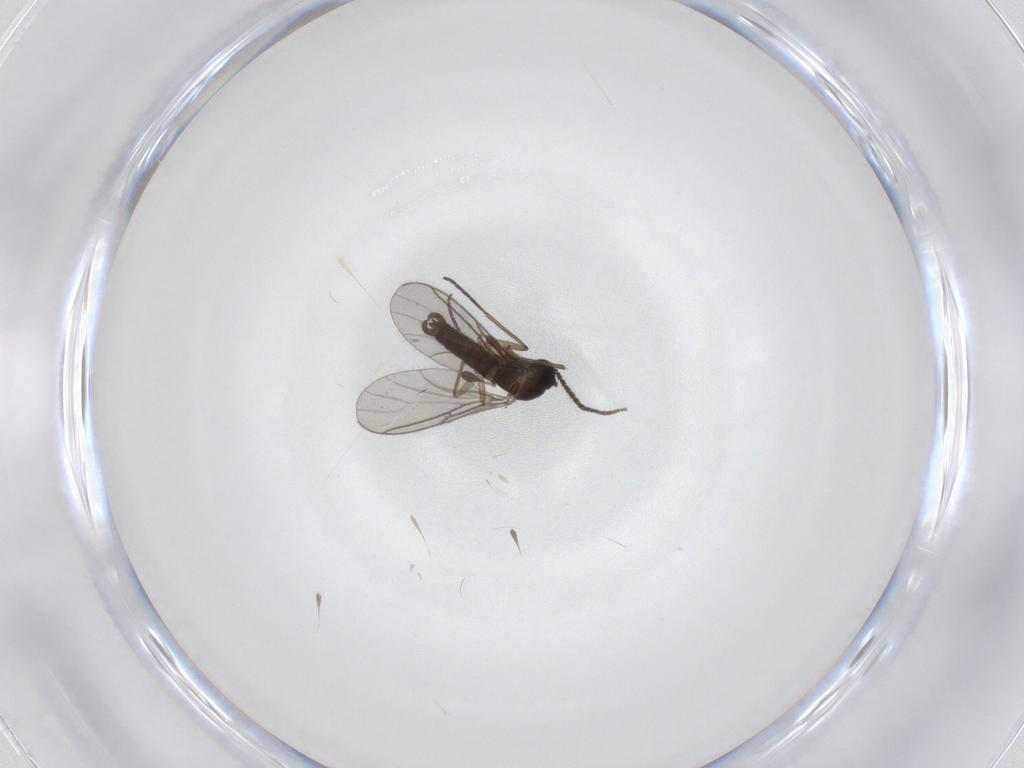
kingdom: Animalia
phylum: Arthropoda
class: Insecta
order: Diptera
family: Sciaridae
